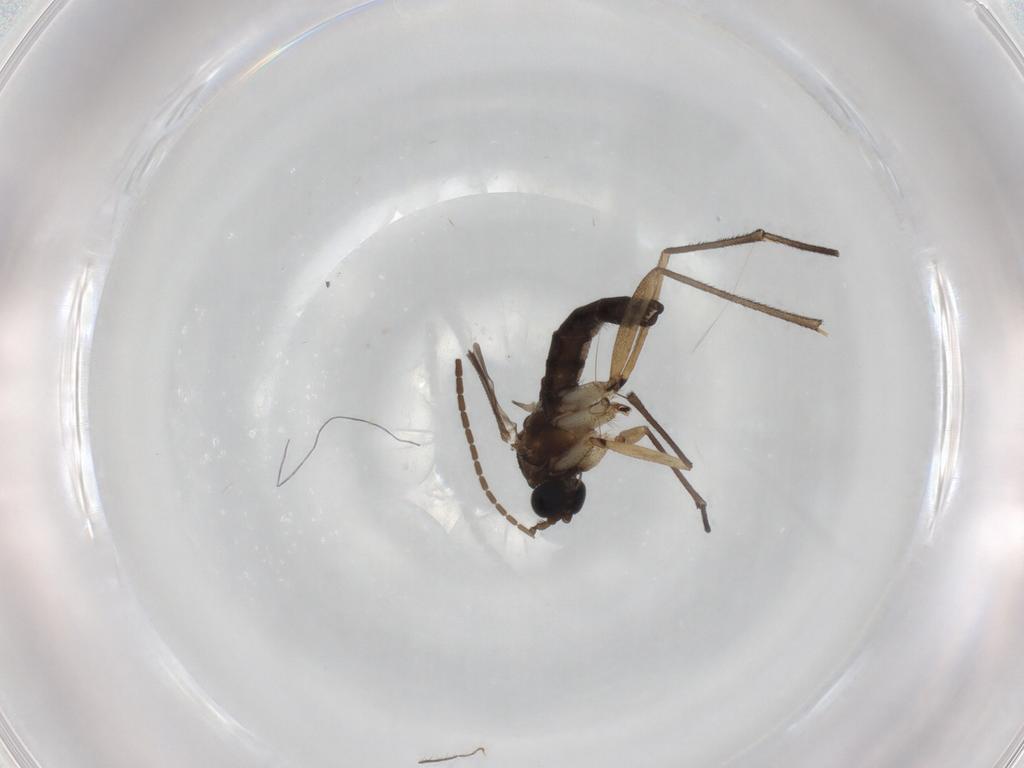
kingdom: Animalia
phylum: Arthropoda
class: Insecta
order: Diptera
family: Sciaridae
